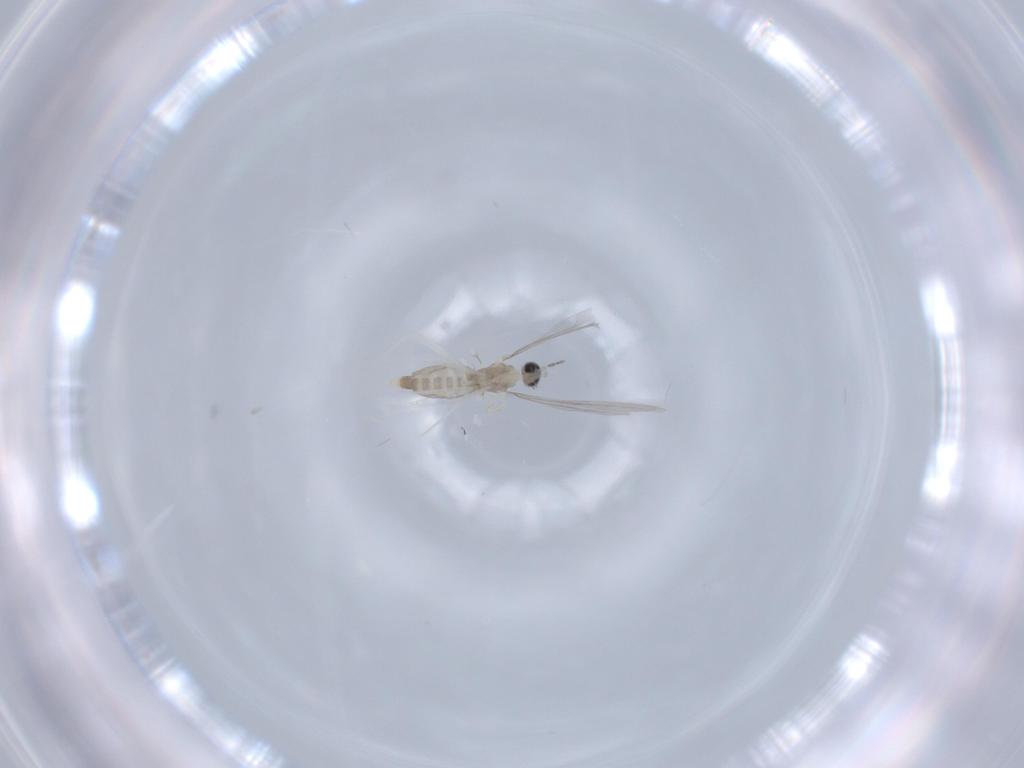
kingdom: Animalia
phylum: Arthropoda
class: Insecta
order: Diptera
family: Cecidomyiidae
